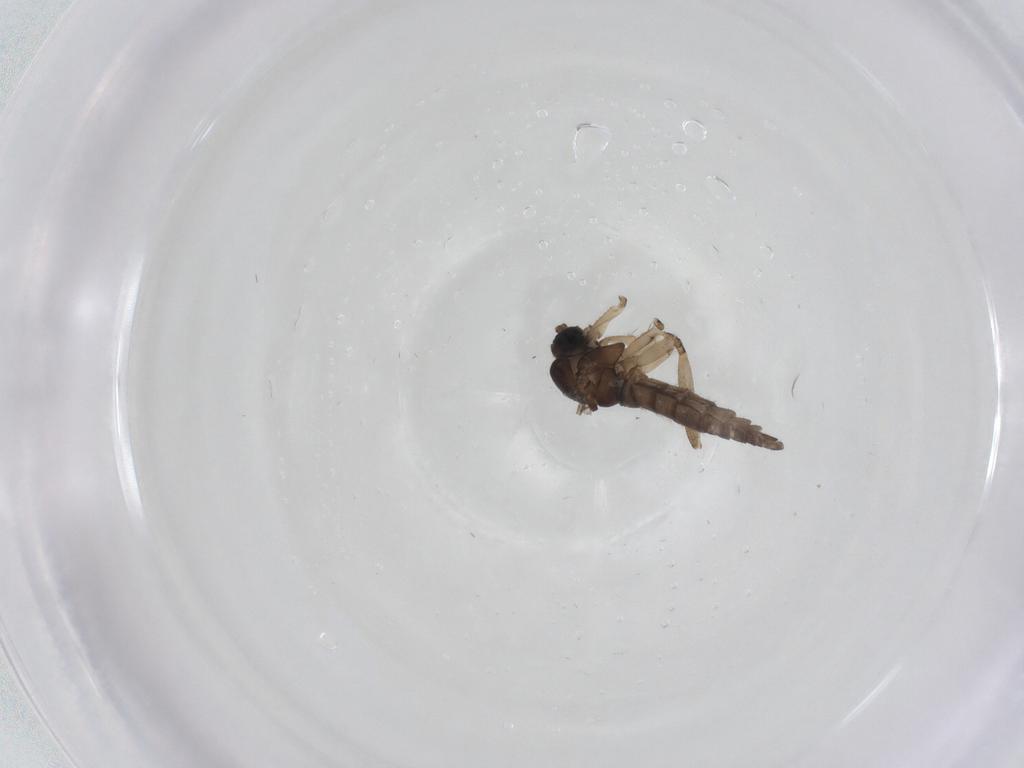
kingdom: Animalia
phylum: Arthropoda
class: Insecta
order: Diptera
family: Sciaridae
